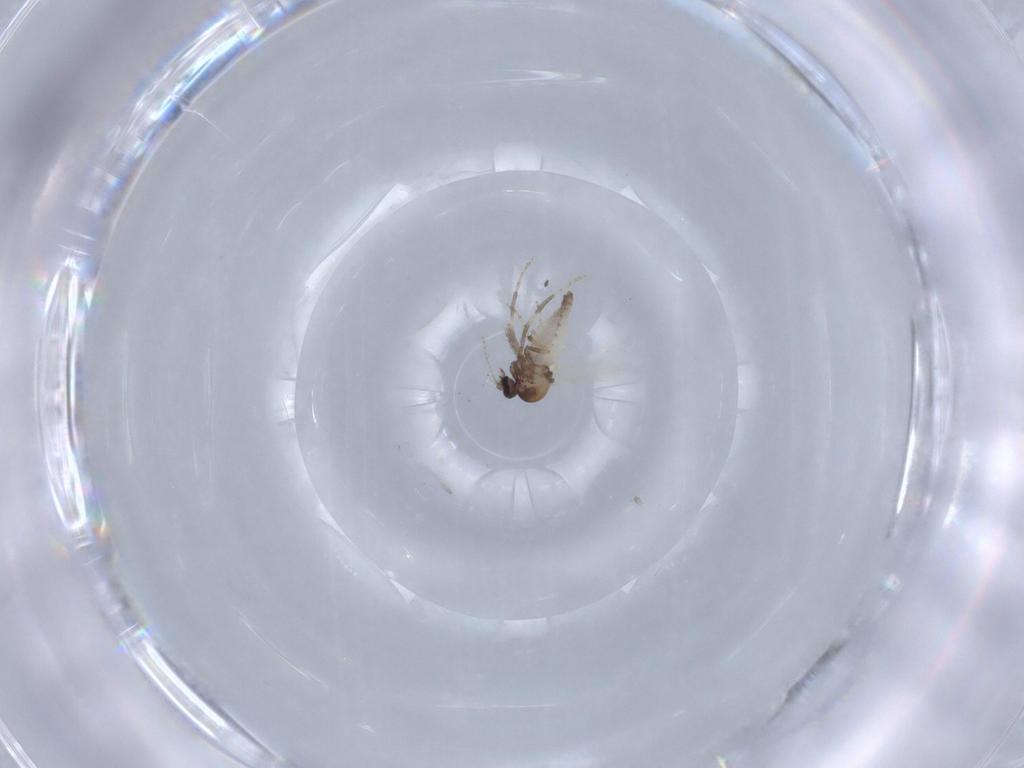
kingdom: Animalia
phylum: Arthropoda
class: Insecta
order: Diptera
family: Ceratopogonidae
